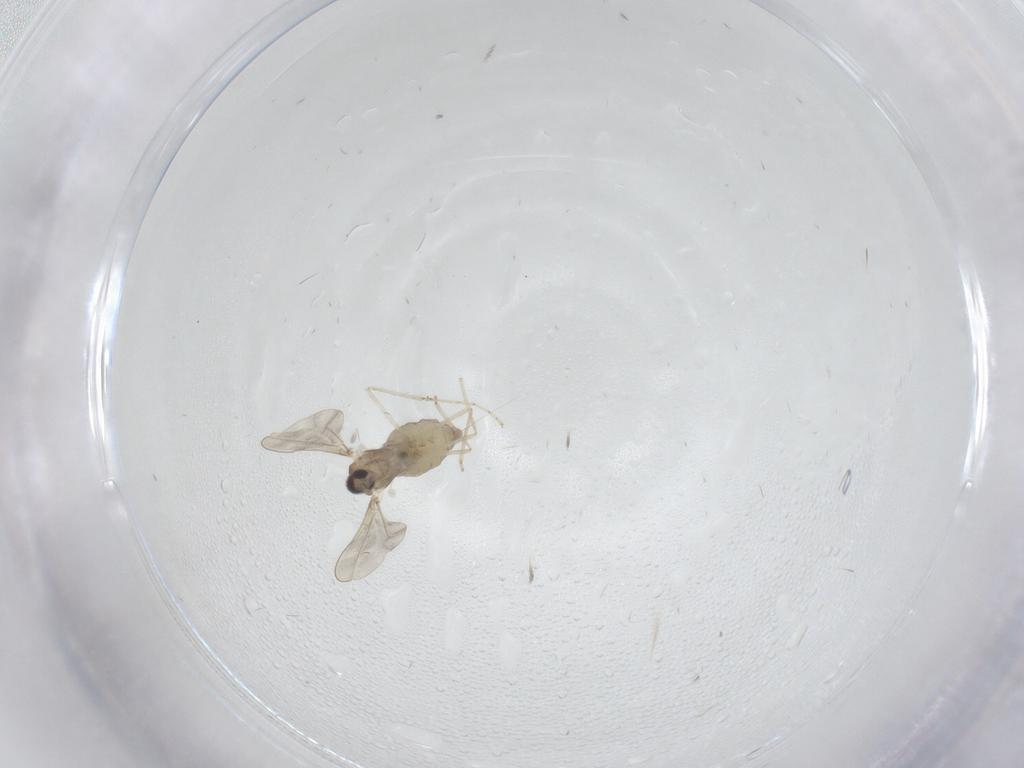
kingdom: Animalia
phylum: Arthropoda
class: Insecta
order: Diptera
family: Cecidomyiidae
